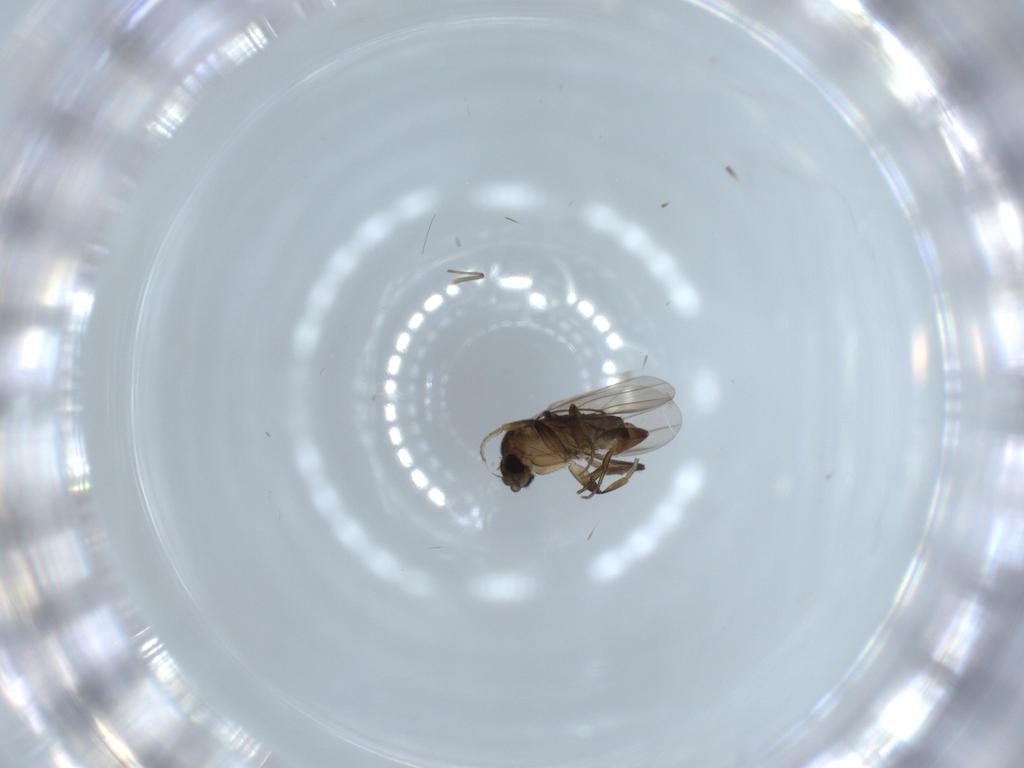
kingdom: Animalia
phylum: Arthropoda
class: Insecta
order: Diptera
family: Phoridae
